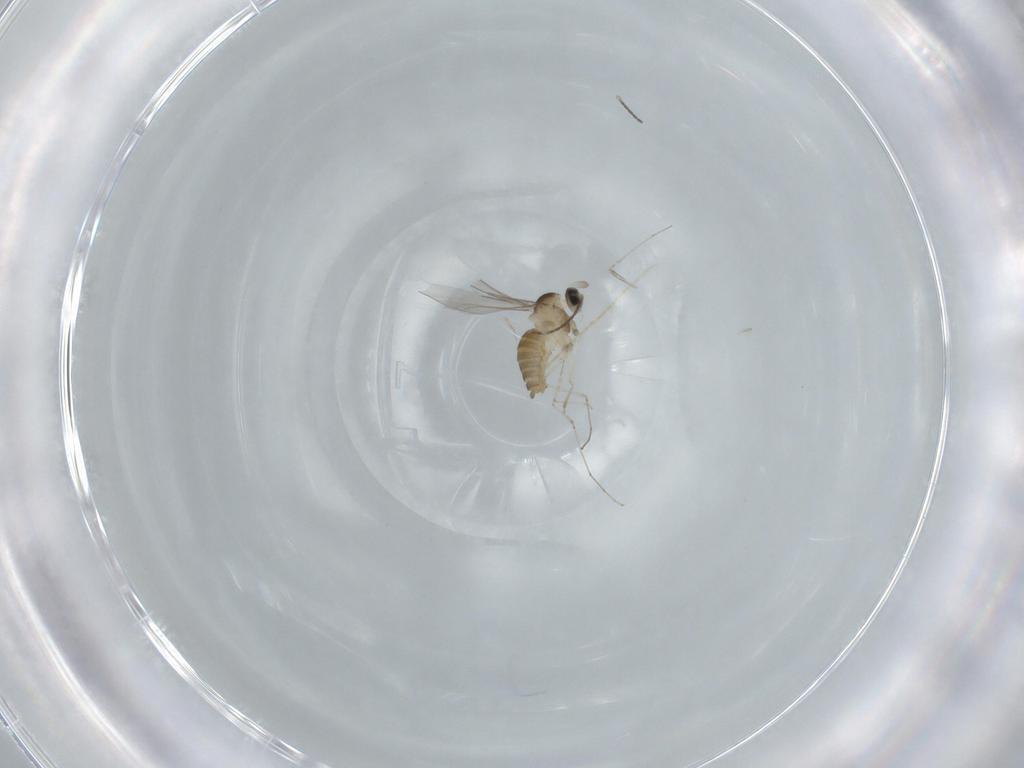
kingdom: Animalia
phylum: Arthropoda
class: Insecta
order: Diptera
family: Cecidomyiidae
